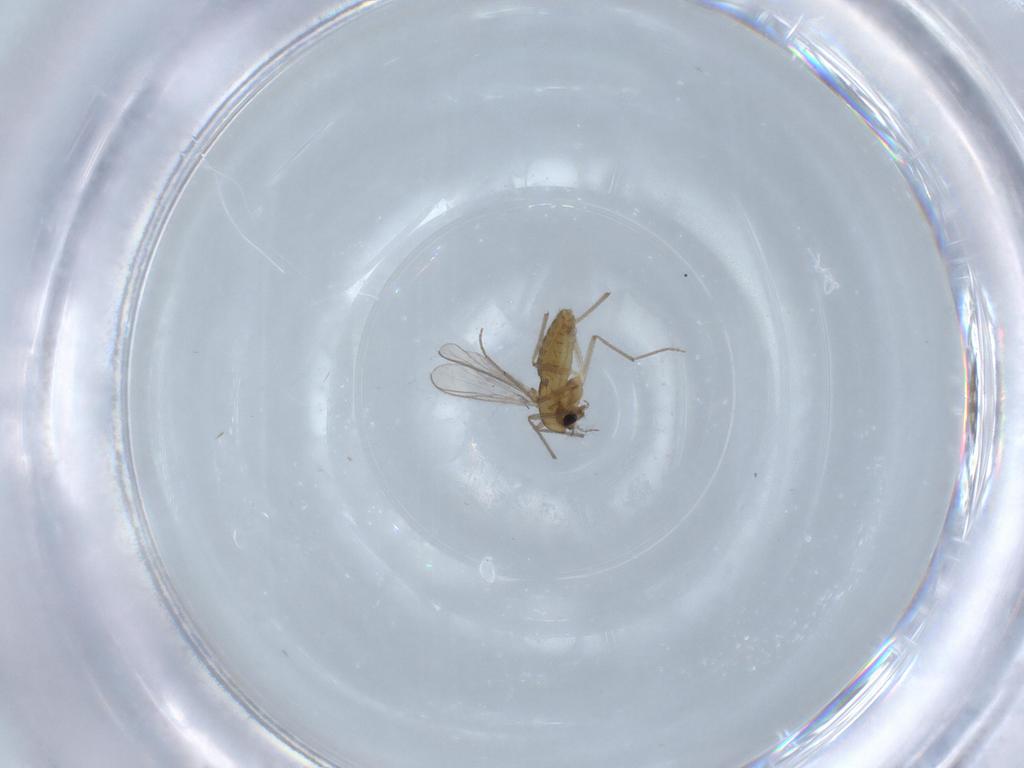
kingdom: Animalia
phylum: Arthropoda
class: Insecta
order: Diptera
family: Chironomidae
